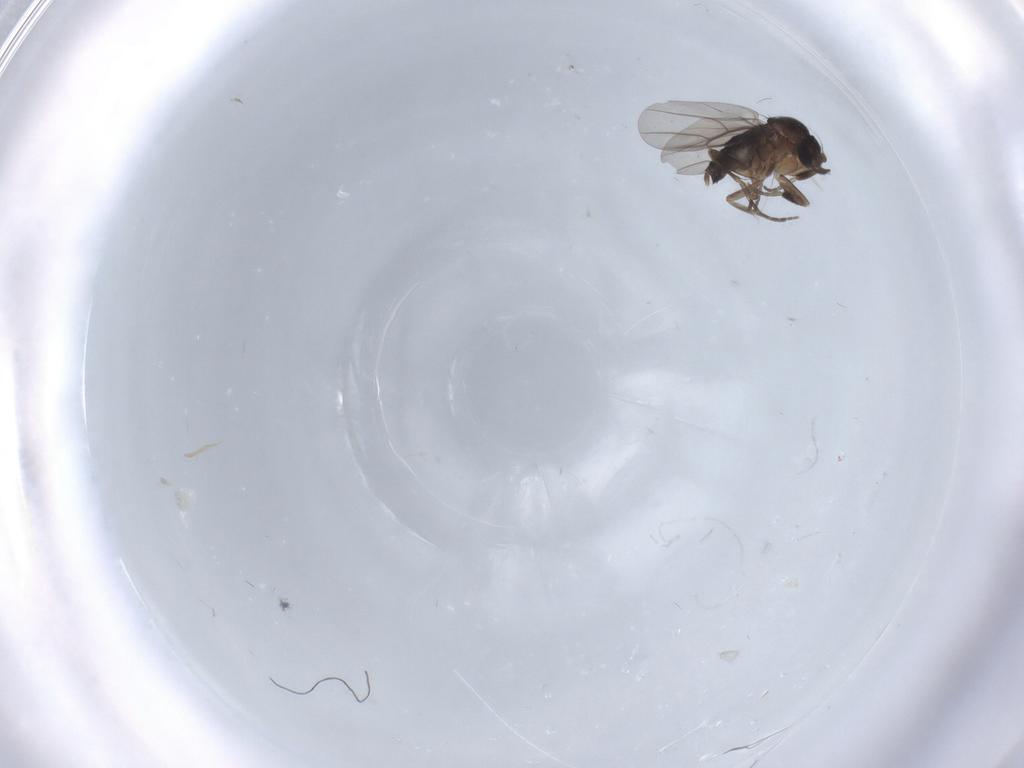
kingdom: Animalia
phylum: Arthropoda
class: Insecta
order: Diptera
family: Phoridae
